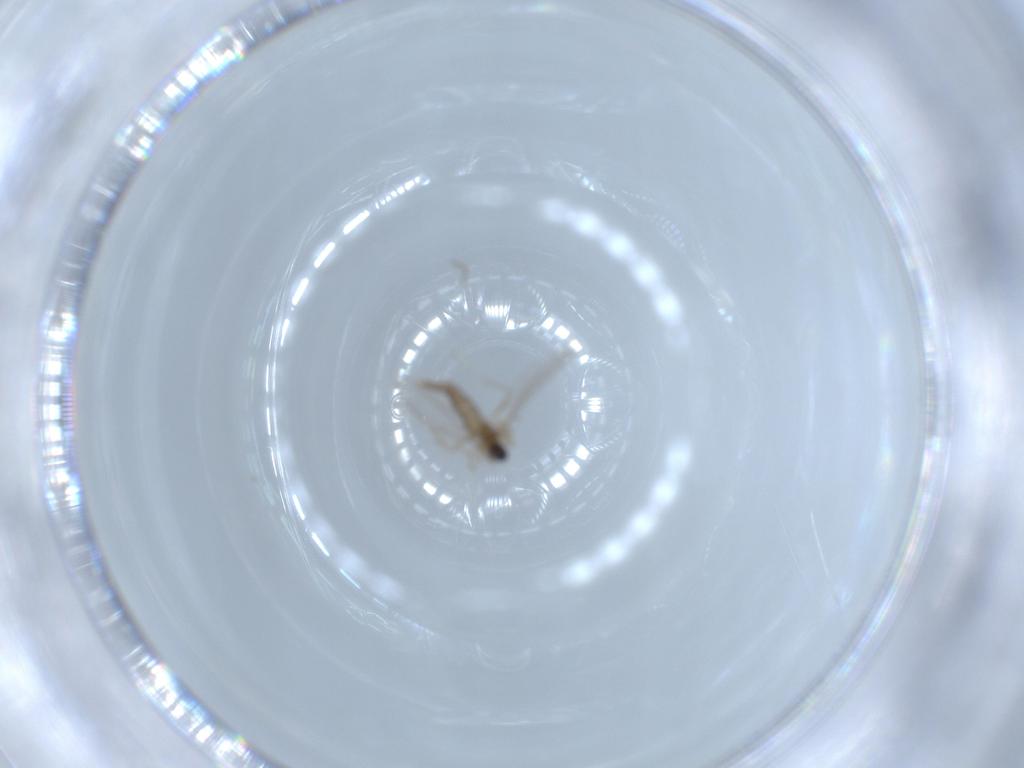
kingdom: Animalia
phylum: Arthropoda
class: Insecta
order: Diptera
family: Cecidomyiidae
